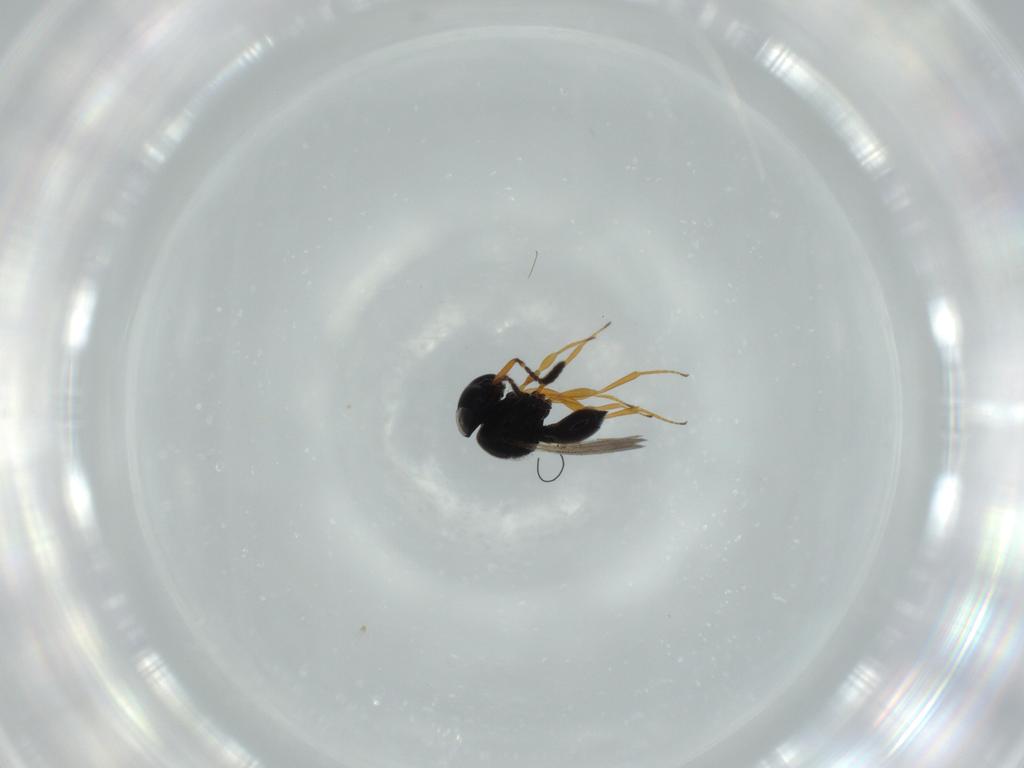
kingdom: Animalia
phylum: Arthropoda
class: Insecta
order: Hymenoptera
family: Scelionidae
